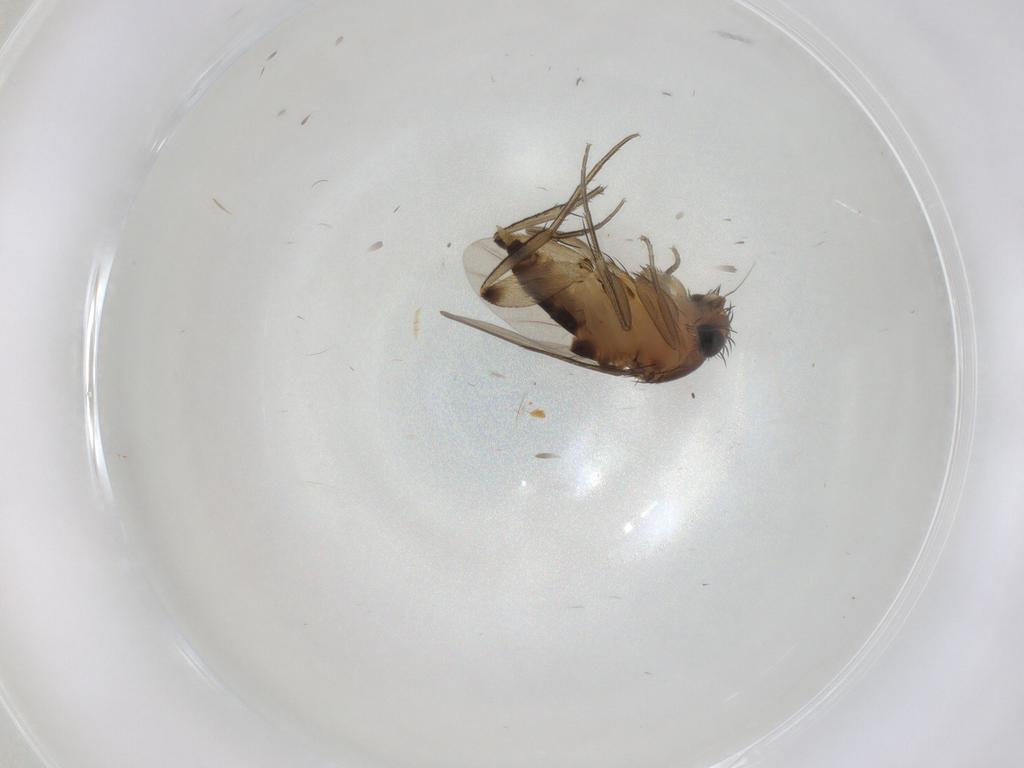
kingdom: Animalia
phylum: Arthropoda
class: Insecta
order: Diptera
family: Phoridae
